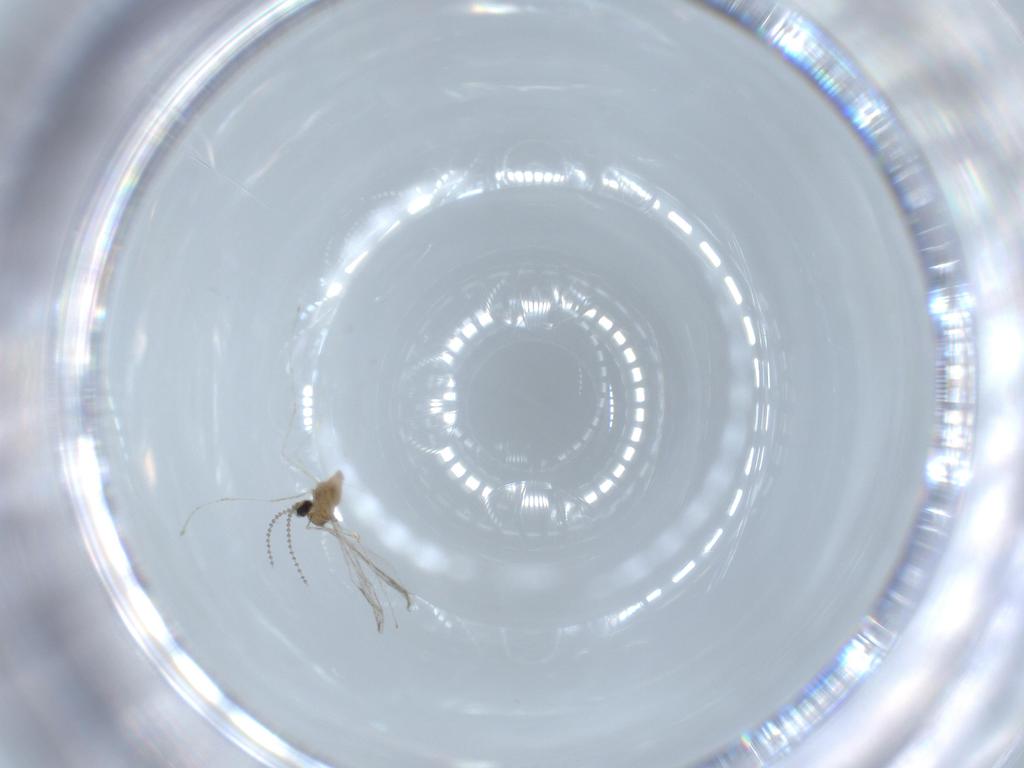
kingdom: Animalia
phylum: Arthropoda
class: Insecta
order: Diptera
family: Cecidomyiidae
